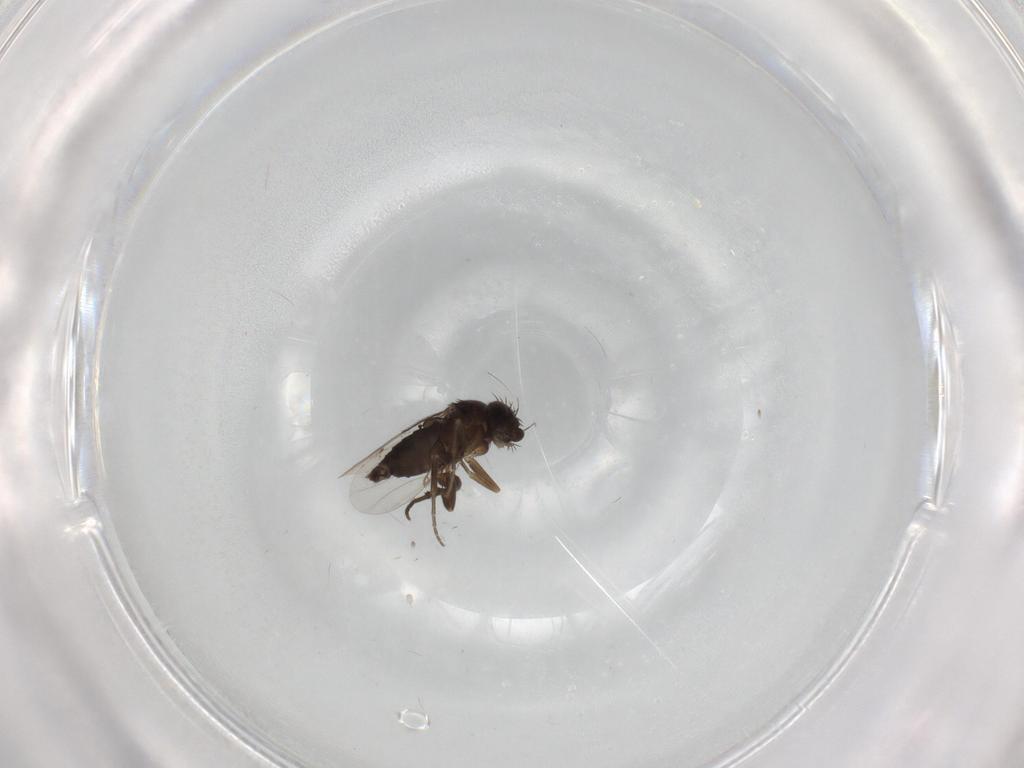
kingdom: Animalia
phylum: Arthropoda
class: Insecta
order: Diptera
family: Phoridae
